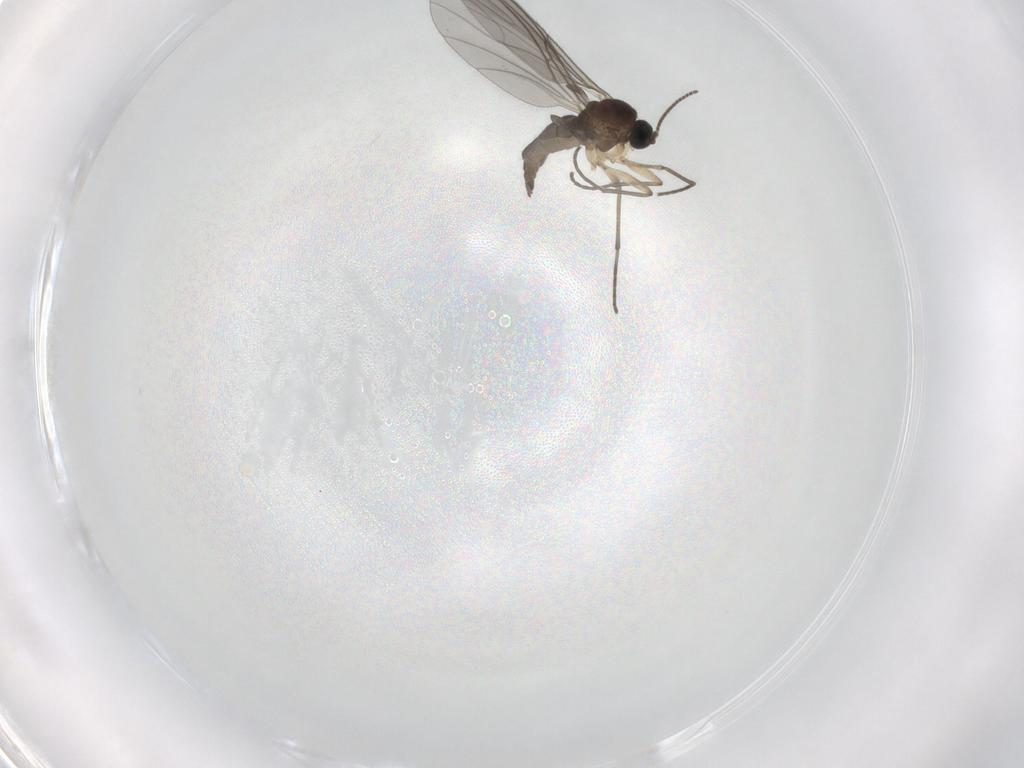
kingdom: Animalia
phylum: Arthropoda
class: Insecta
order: Diptera
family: Sciaridae
